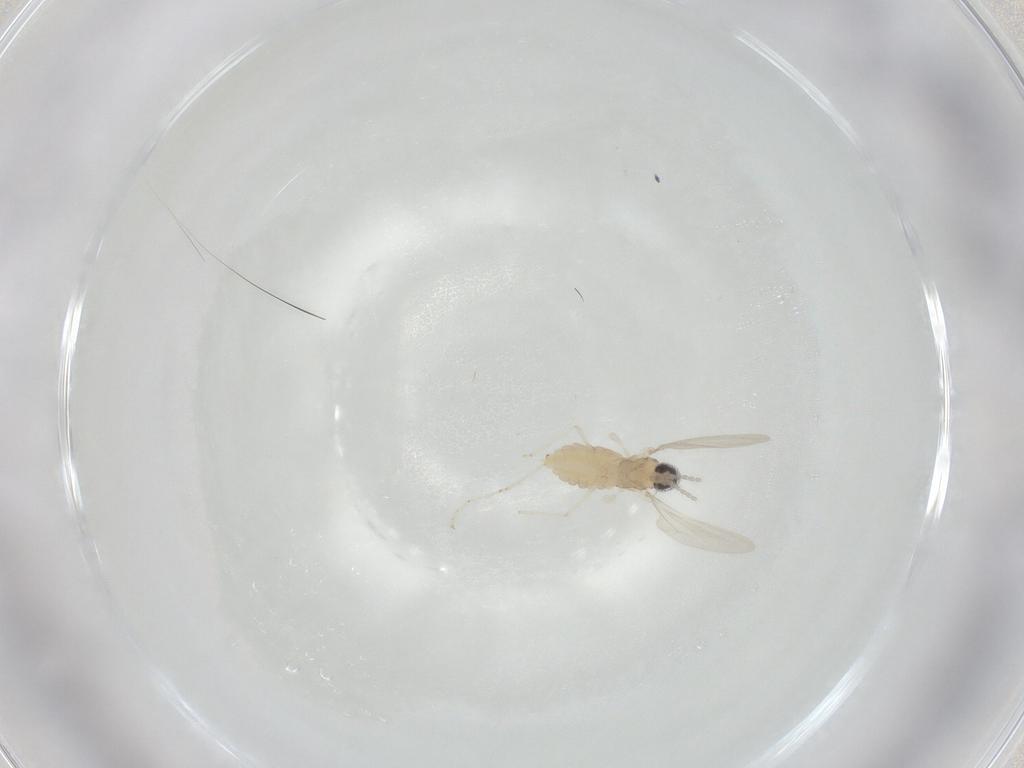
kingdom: Animalia
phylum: Arthropoda
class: Insecta
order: Diptera
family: Cecidomyiidae
